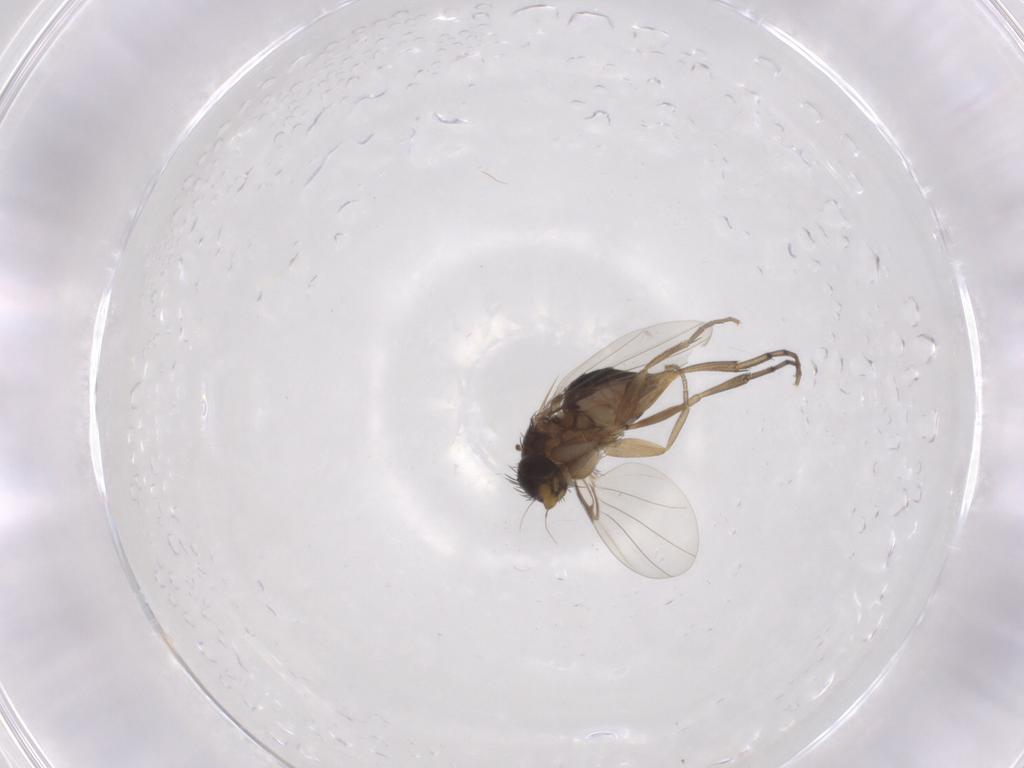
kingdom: Animalia
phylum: Arthropoda
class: Insecta
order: Diptera
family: Phoridae
